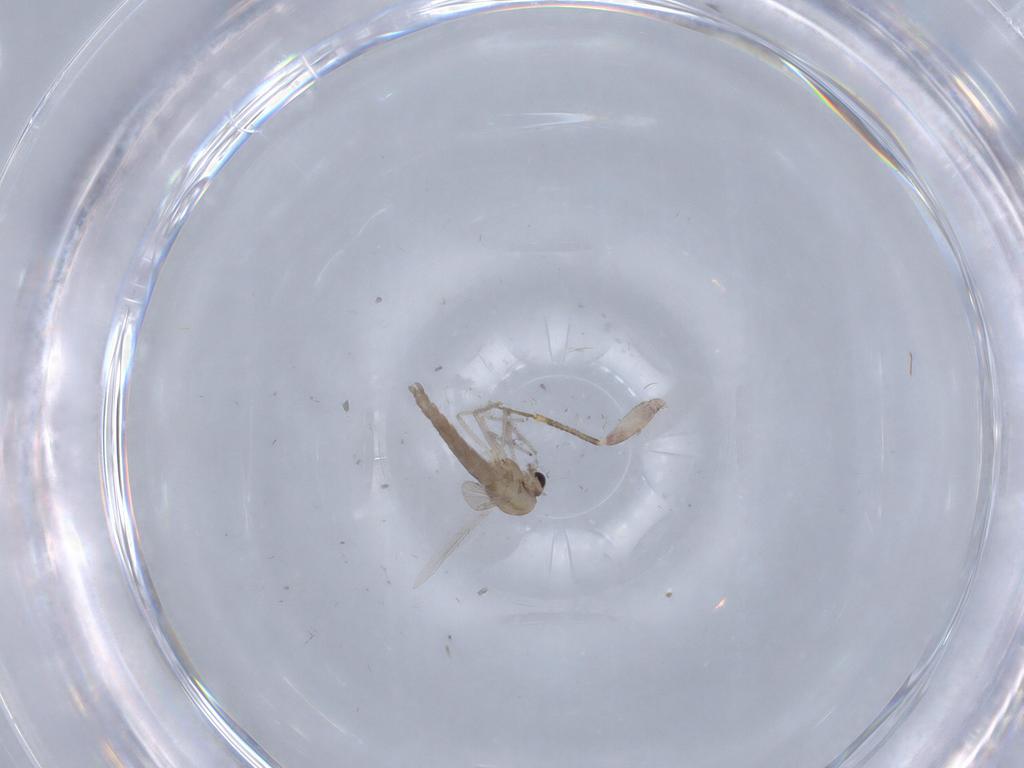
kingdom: Animalia
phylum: Arthropoda
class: Insecta
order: Diptera
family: Chironomidae
